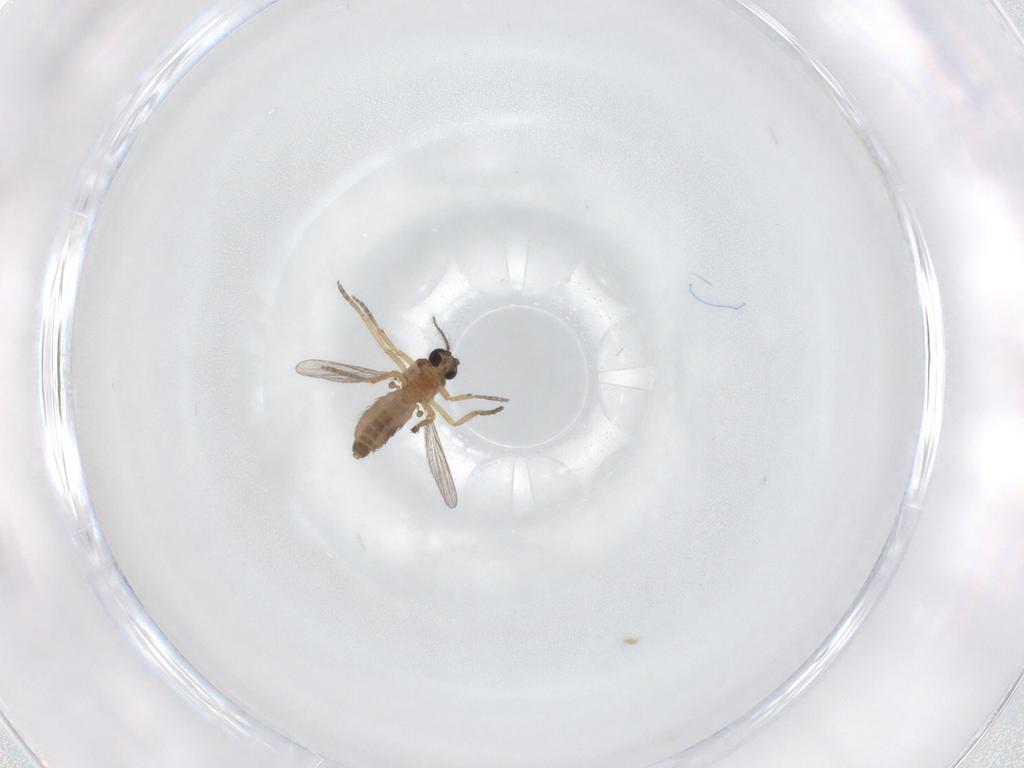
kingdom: Animalia
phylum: Arthropoda
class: Insecta
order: Diptera
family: Ceratopogonidae
